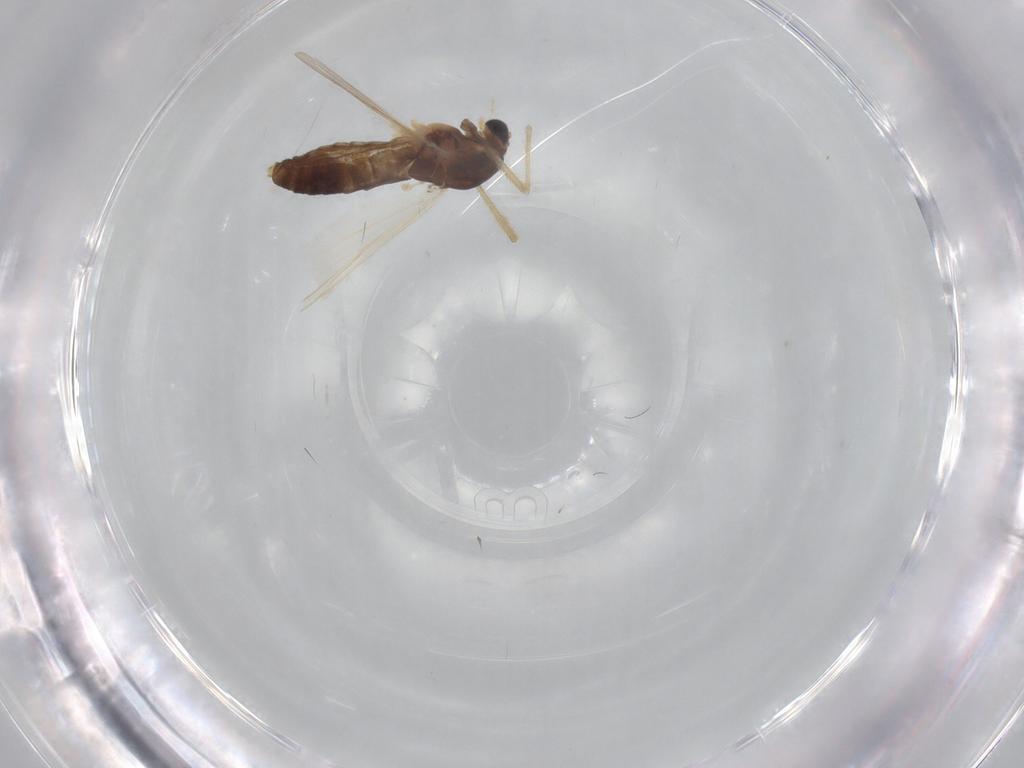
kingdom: Animalia
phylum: Arthropoda
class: Insecta
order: Diptera
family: Chironomidae
